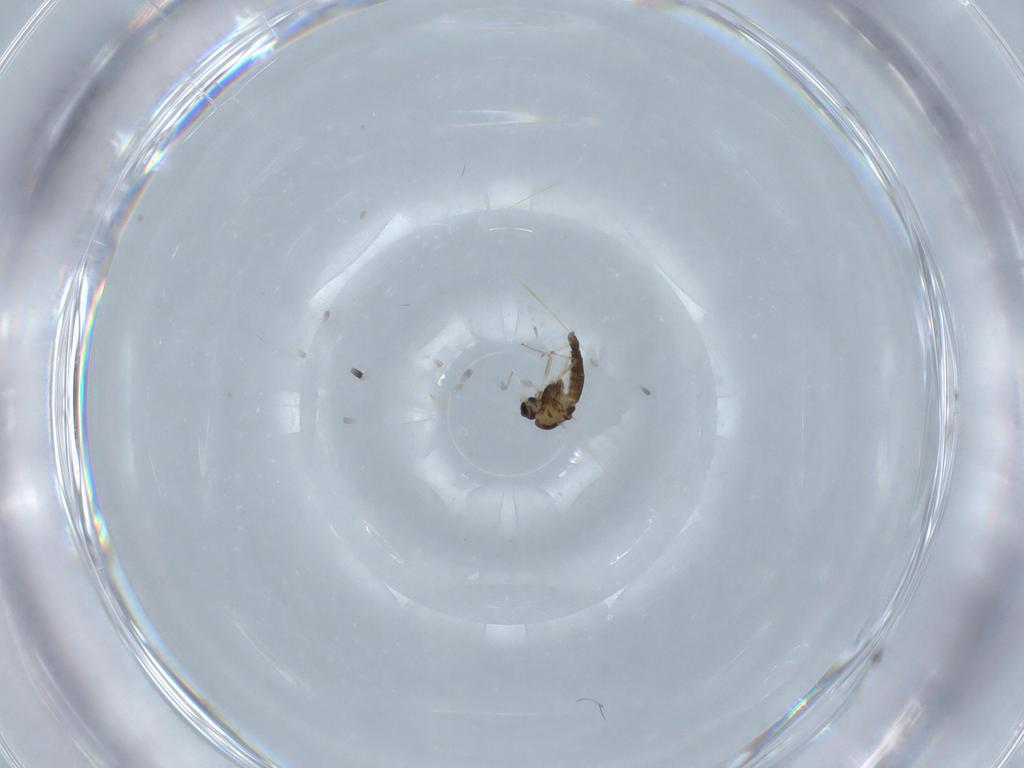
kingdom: Animalia
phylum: Arthropoda
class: Insecta
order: Diptera
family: Chironomidae
